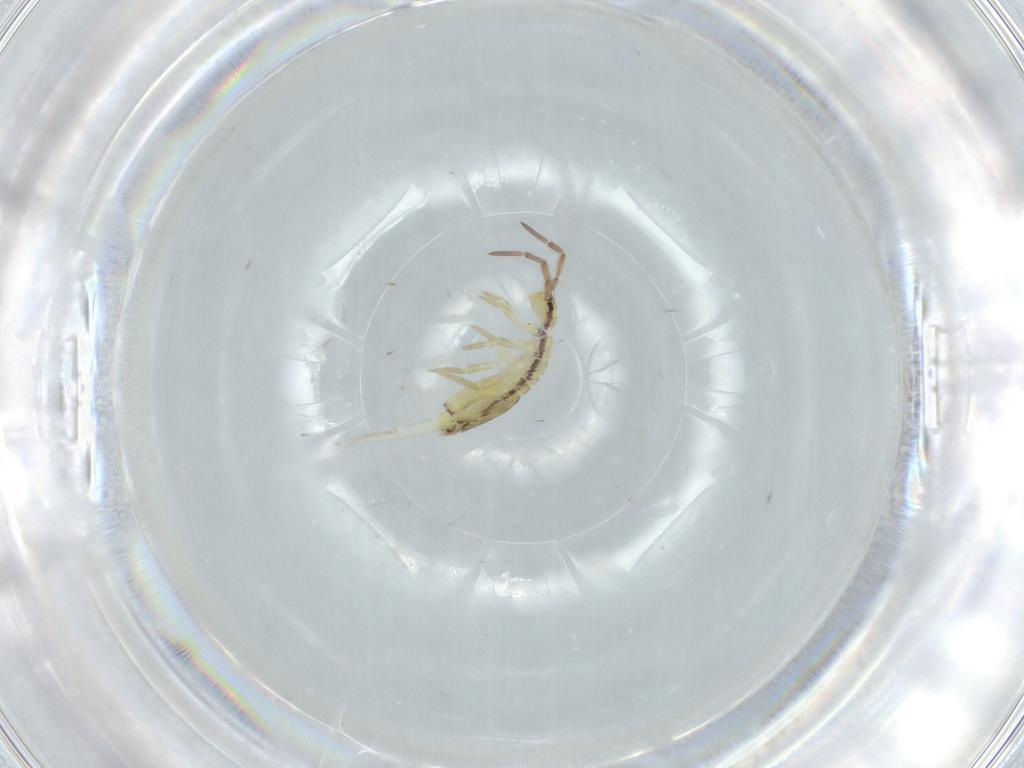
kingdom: Animalia
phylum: Arthropoda
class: Collembola
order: Entomobryomorpha
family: Entomobryidae
